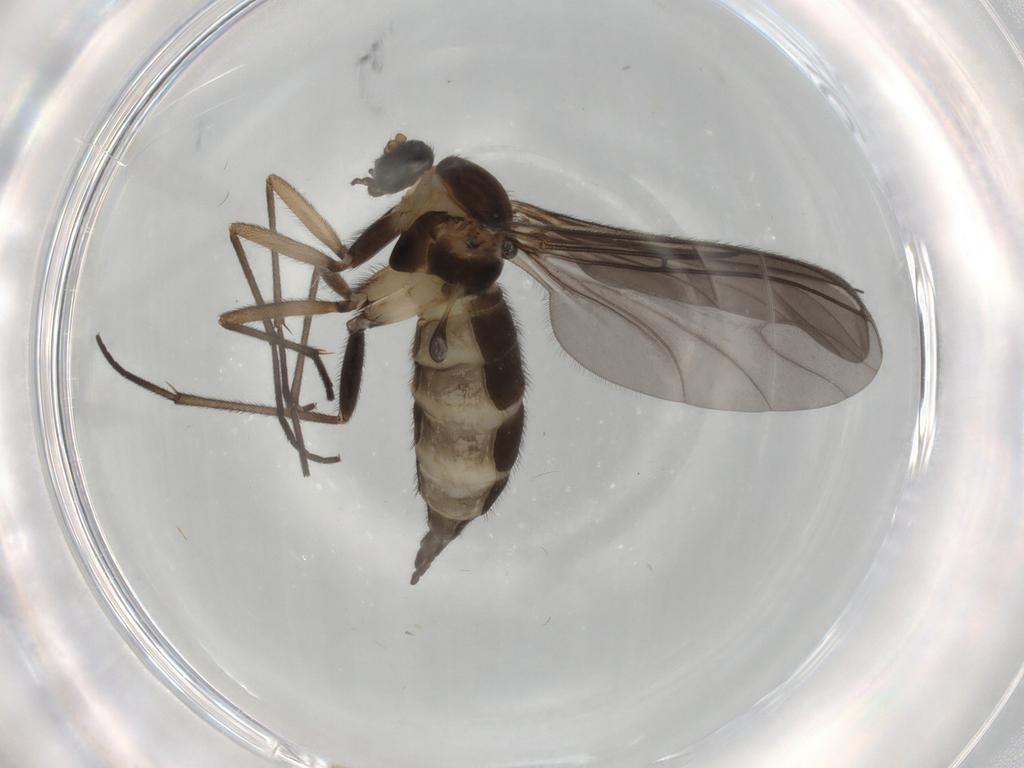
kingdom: Animalia
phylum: Arthropoda
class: Insecta
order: Diptera
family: Sciaridae
